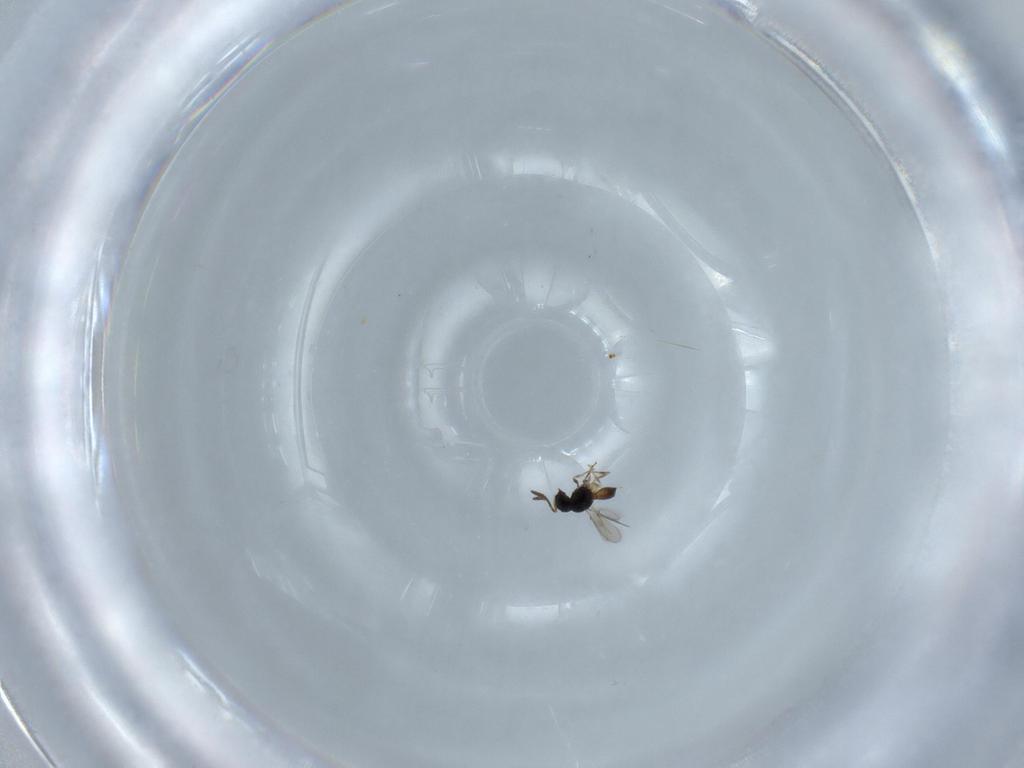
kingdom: Animalia
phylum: Arthropoda
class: Insecta
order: Hymenoptera
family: Scelionidae
